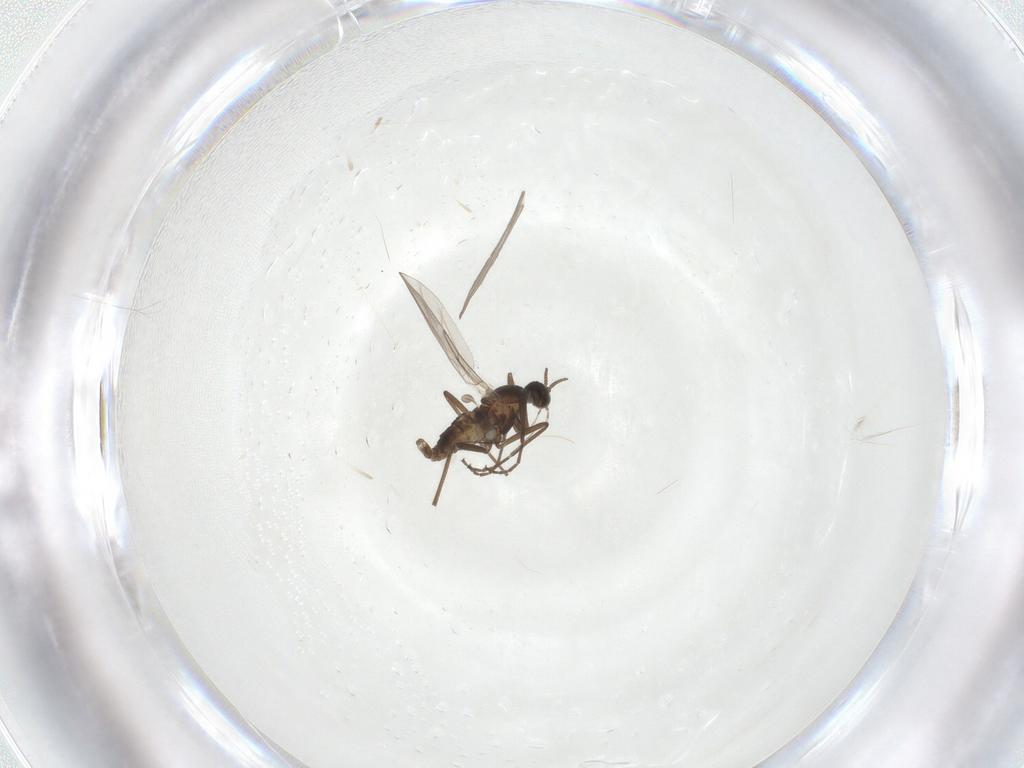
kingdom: Animalia
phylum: Arthropoda
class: Insecta
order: Diptera
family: Cecidomyiidae
